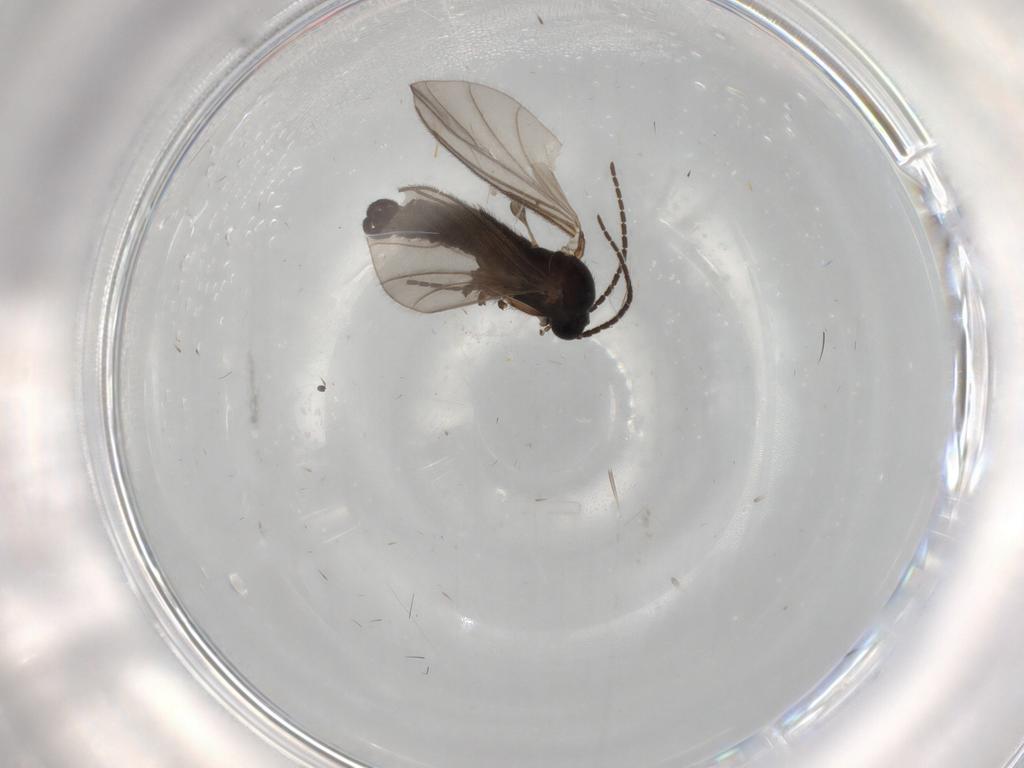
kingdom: Animalia
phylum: Arthropoda
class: Insecta
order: Diptera
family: Sciaridae
